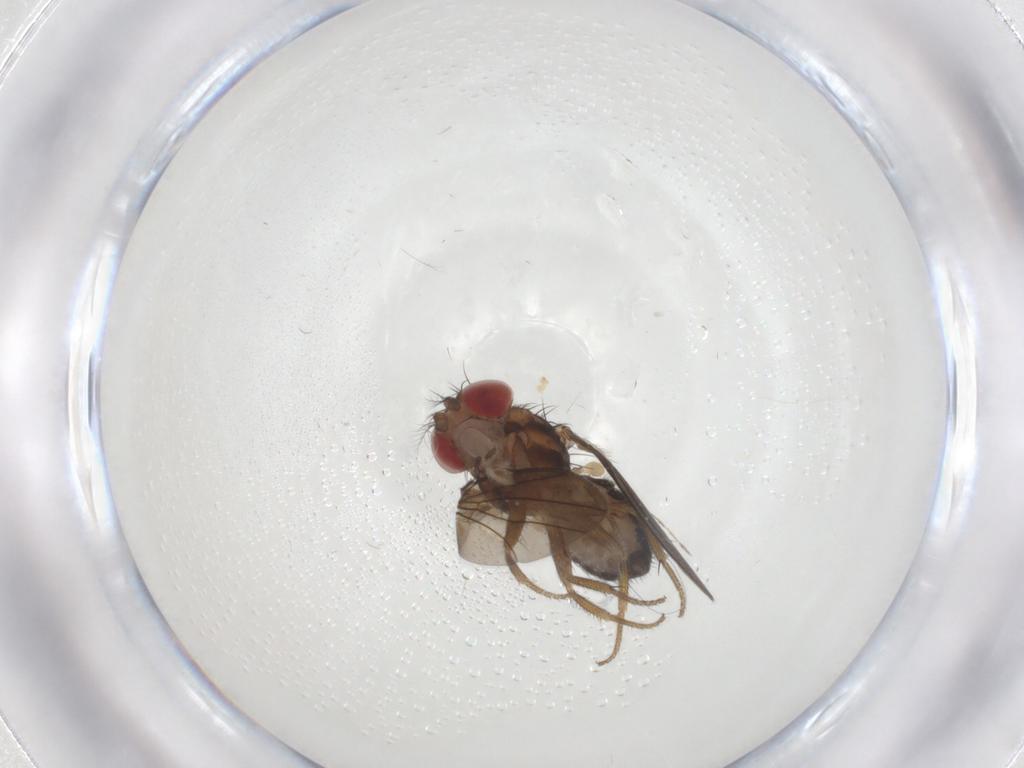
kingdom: Animalia
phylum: Arthropoda
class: Insecta
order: Diptera
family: Drosophilidae
